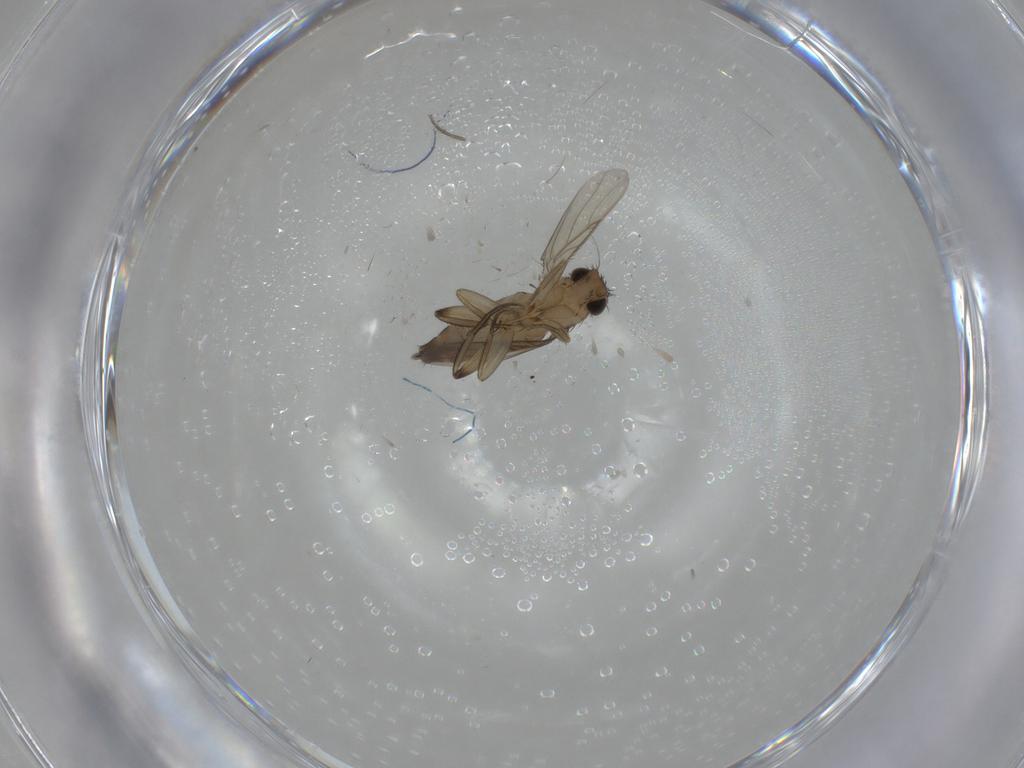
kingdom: Animalia
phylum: Arthropoda
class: Insecta
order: Diptera
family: Phoridae
